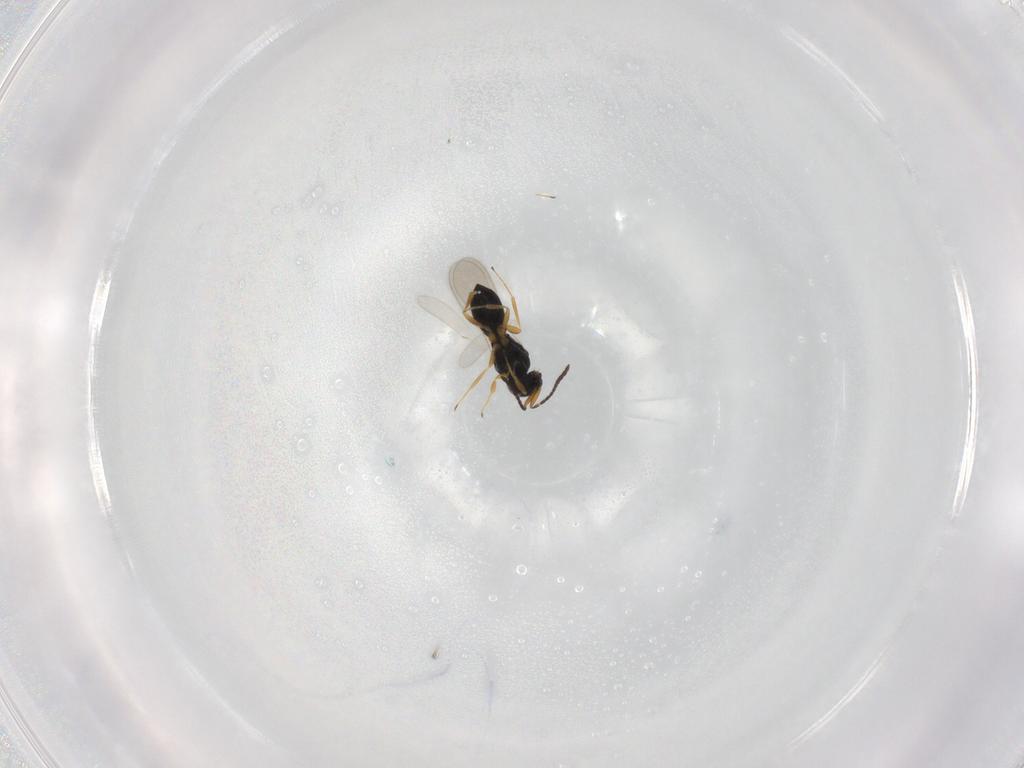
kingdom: Animalia
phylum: Arthropoda
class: Insecta
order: Hymenoptera
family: Scelionidae
